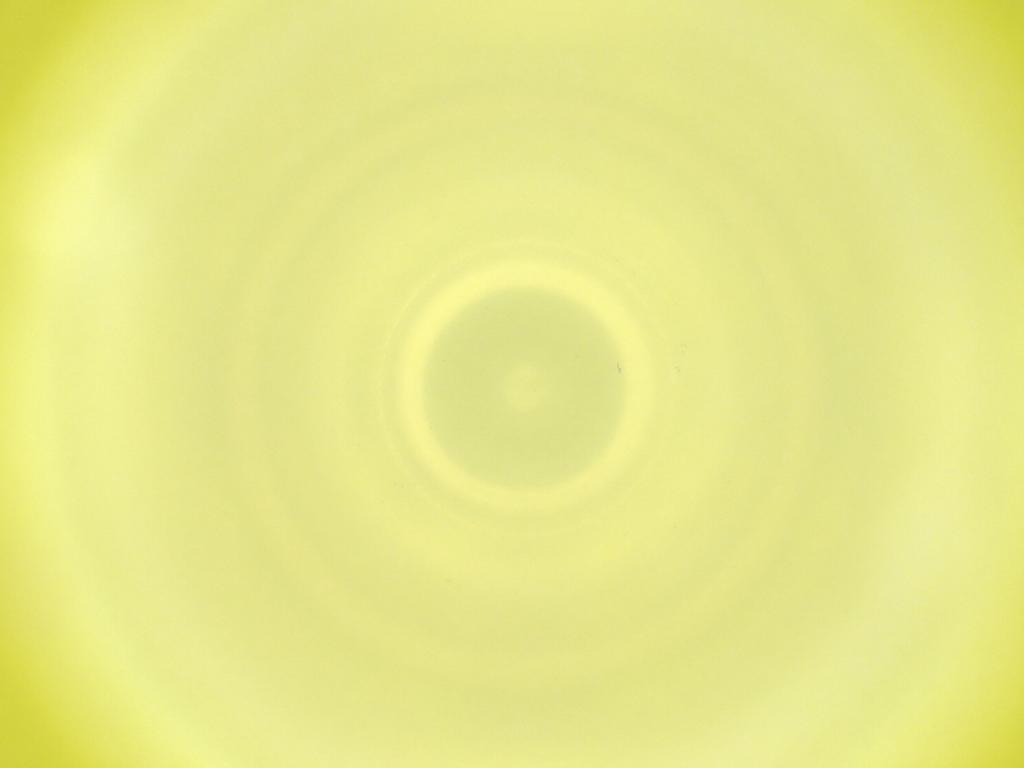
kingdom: Animalia
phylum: Arthropoda
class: Insecta
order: Diptera
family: Cecidomyiidae
